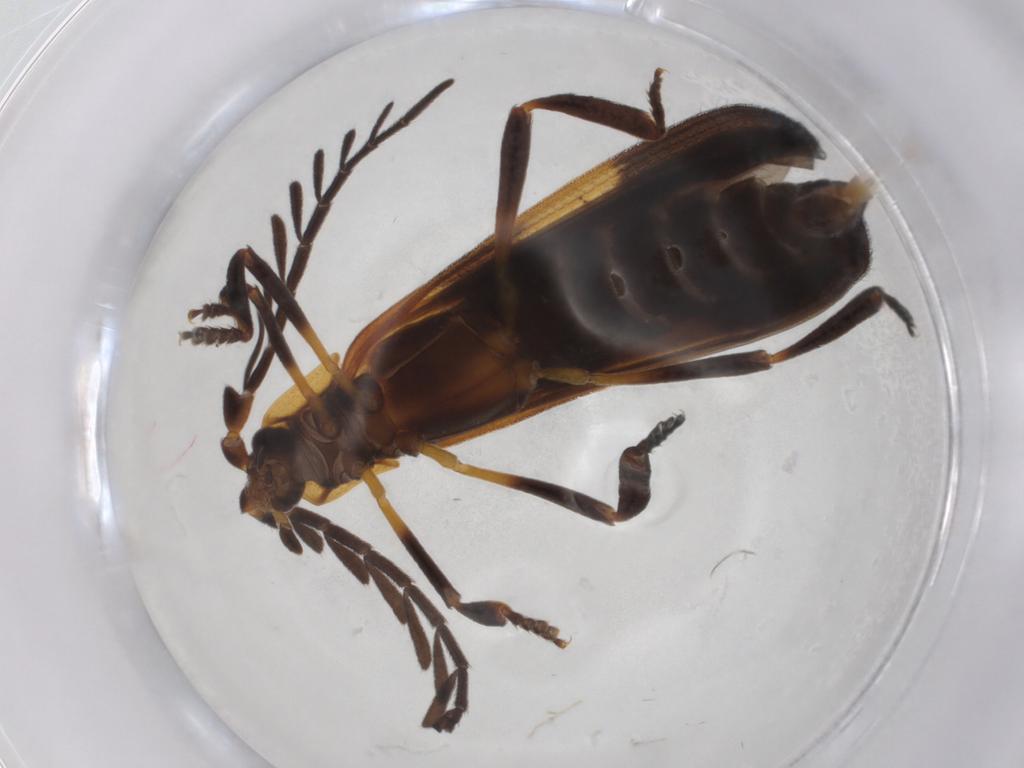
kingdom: Animalia
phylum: Arthropoda
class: Insecta
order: Coleoptera
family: Lycidae
